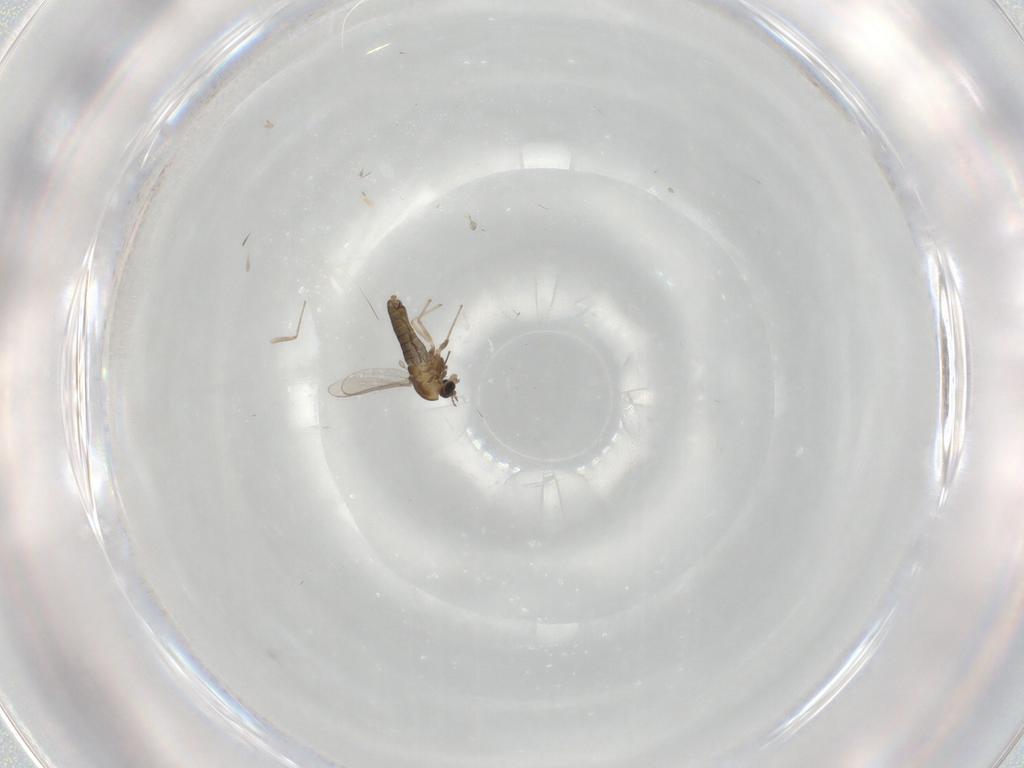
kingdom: Animalia
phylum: Arthropoda
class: Insecta
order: Diptera
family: Chironomidae
